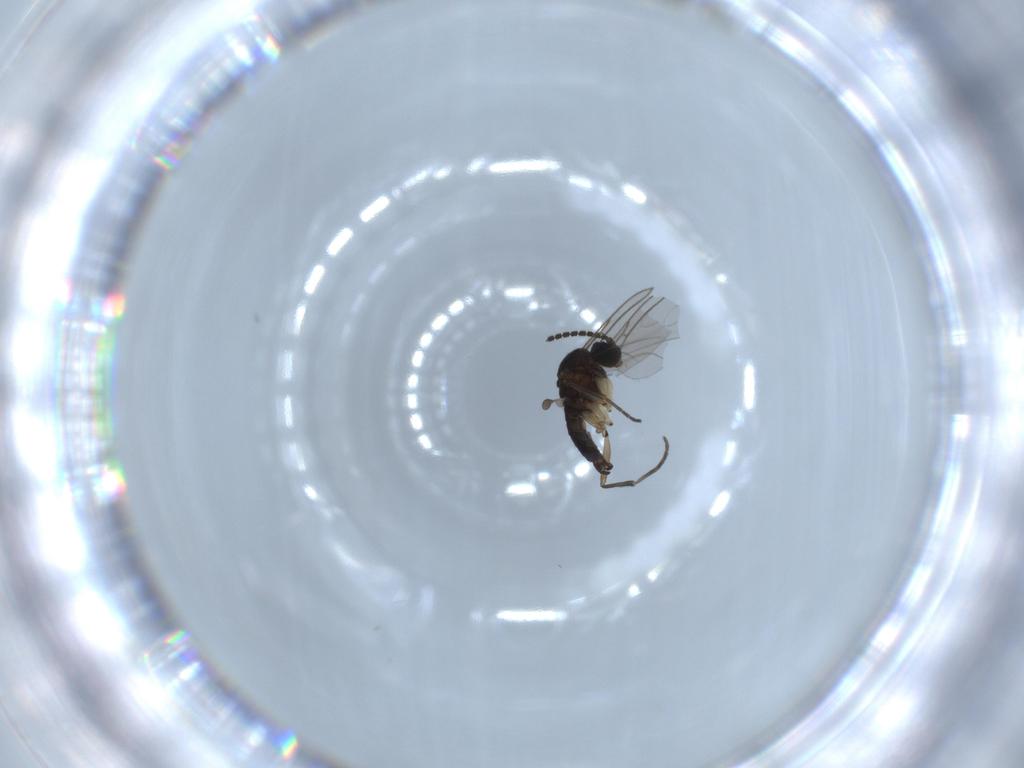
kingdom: Animalia
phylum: Arthropoda
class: Insecta
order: Diptera
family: Sciaridae
